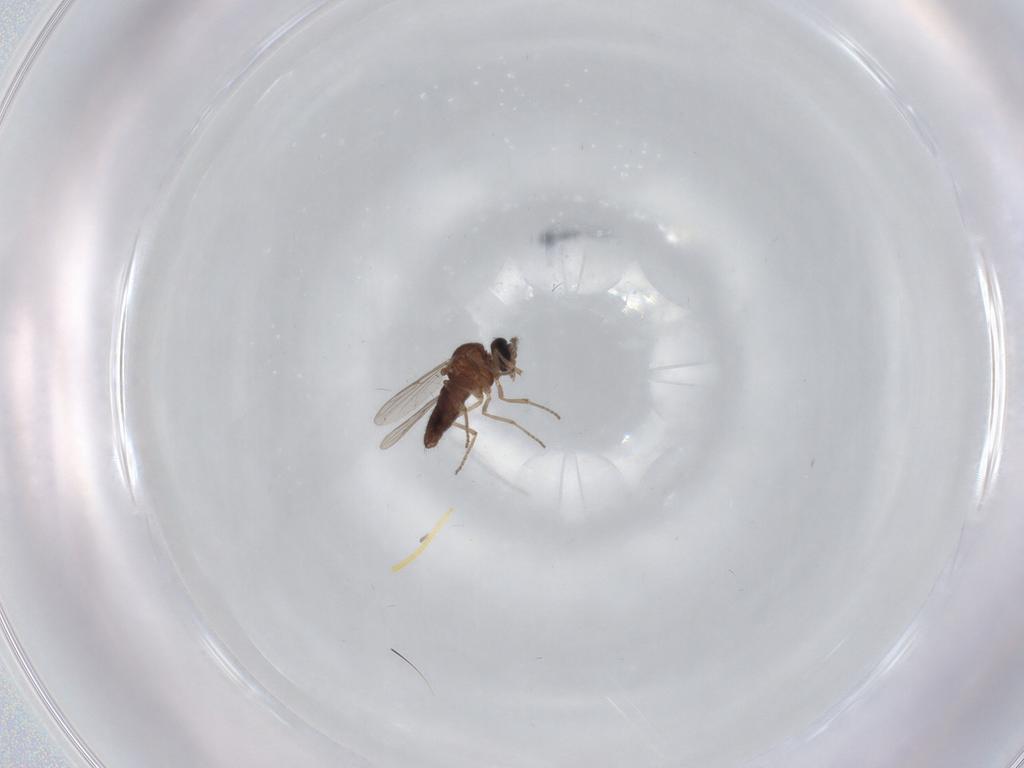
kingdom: Animalia
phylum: Arthropoda
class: Insecta
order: Diptera
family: Ceratopogonidae
